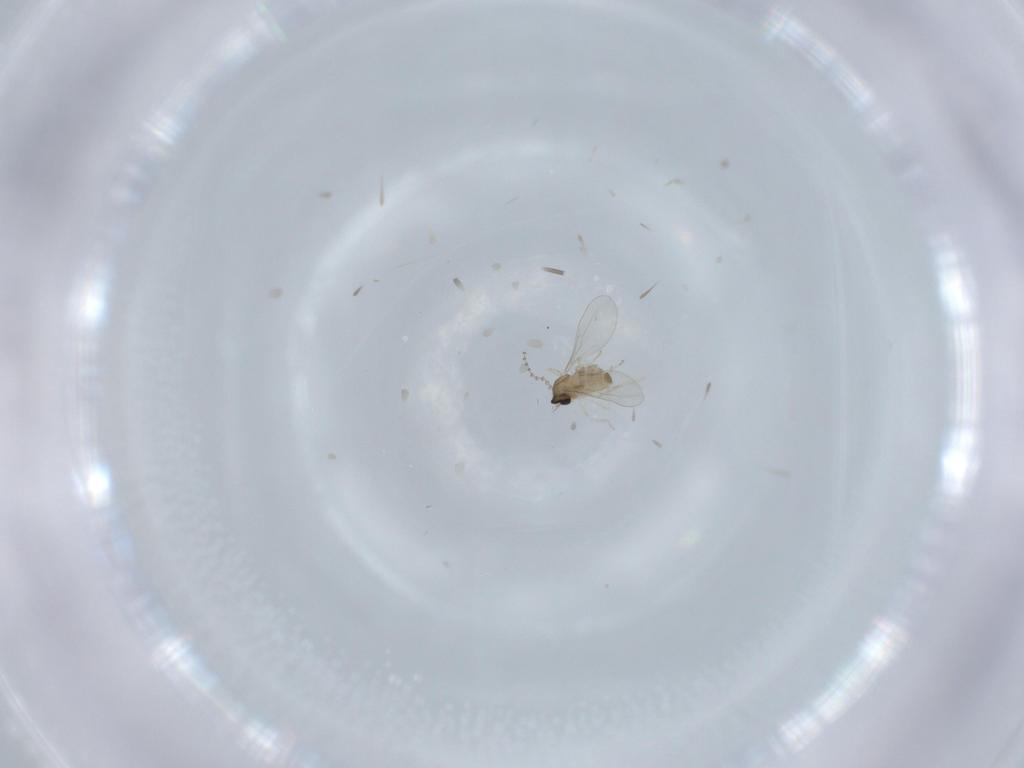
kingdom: Animalia
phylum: Arthropoda
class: Insecta
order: Diptera
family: Cecidomyiidae
